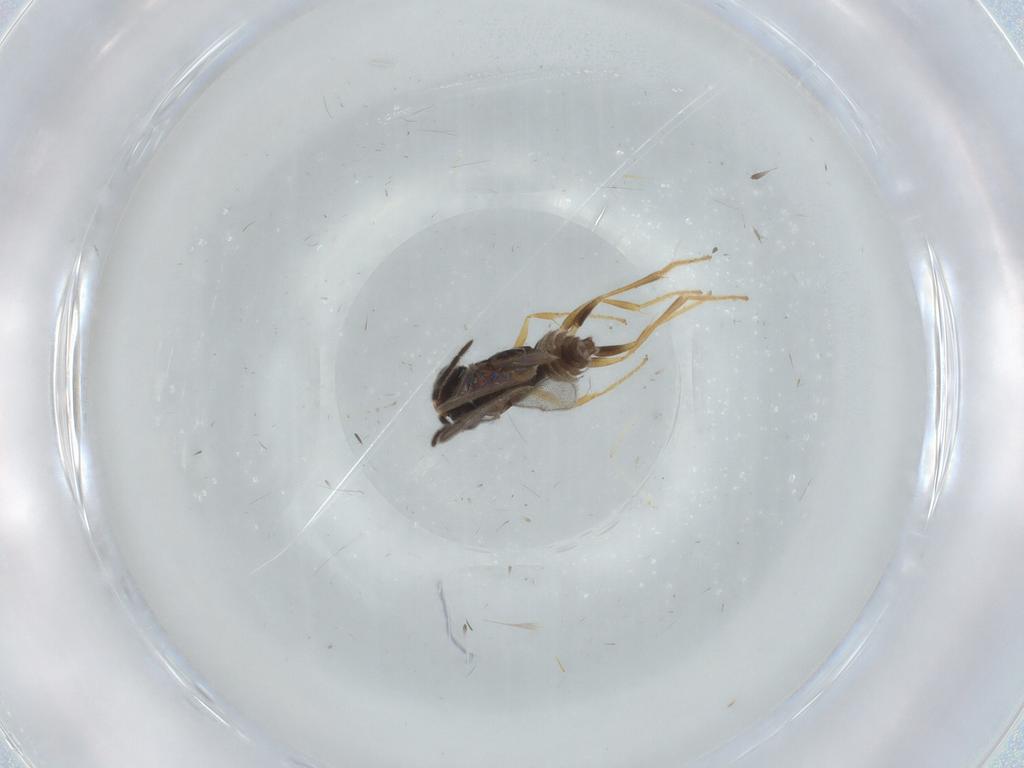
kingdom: Animalia
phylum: Arthropoda
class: Insecta
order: Hymenoptera
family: Dryinidae
